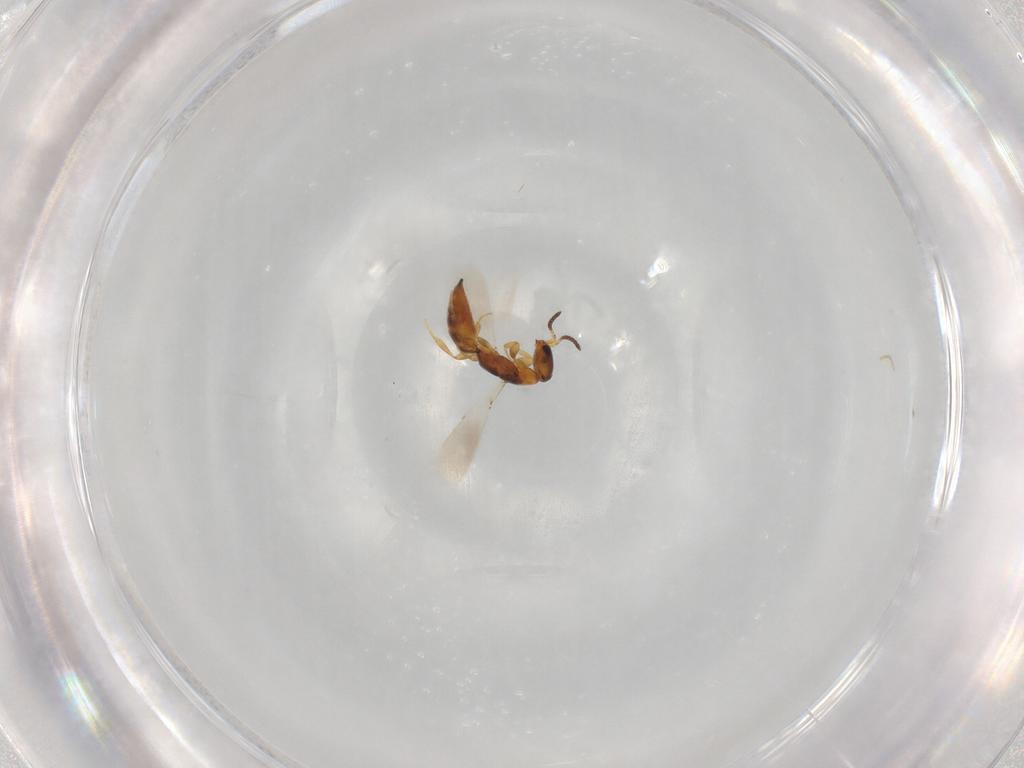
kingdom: Animalia
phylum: Arthropoda
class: Insecta
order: Hymenoptera
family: Bethylidae
